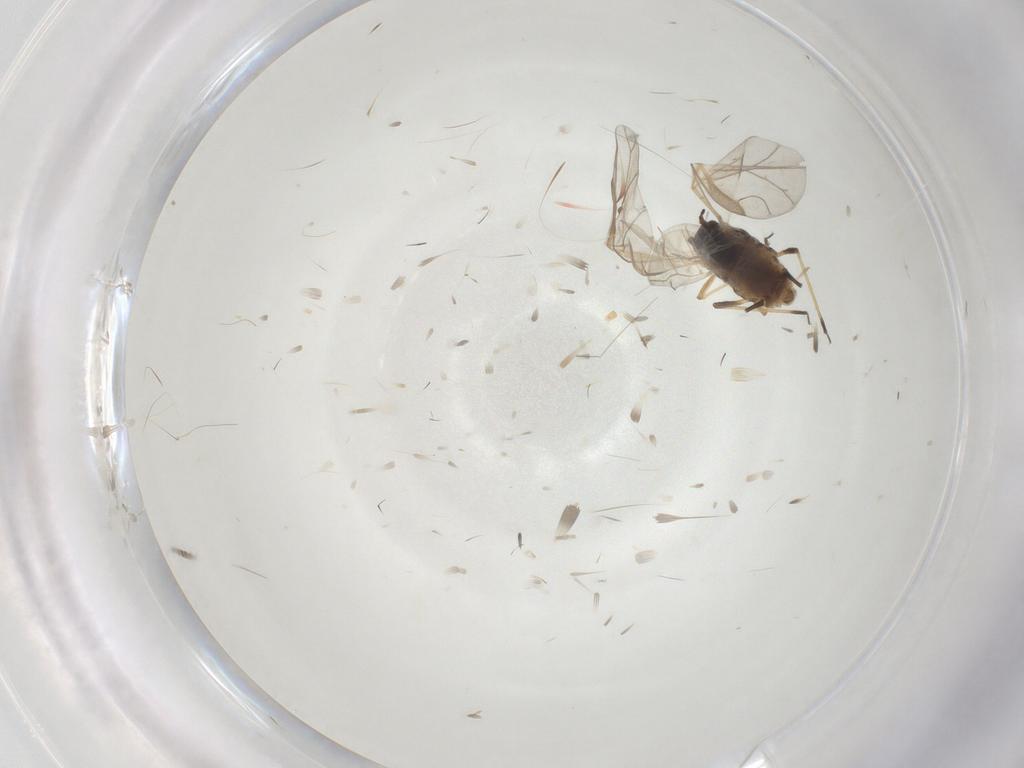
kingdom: Animalia
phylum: Arthropoda
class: Insecta
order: Hemiptera
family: Aphididae
